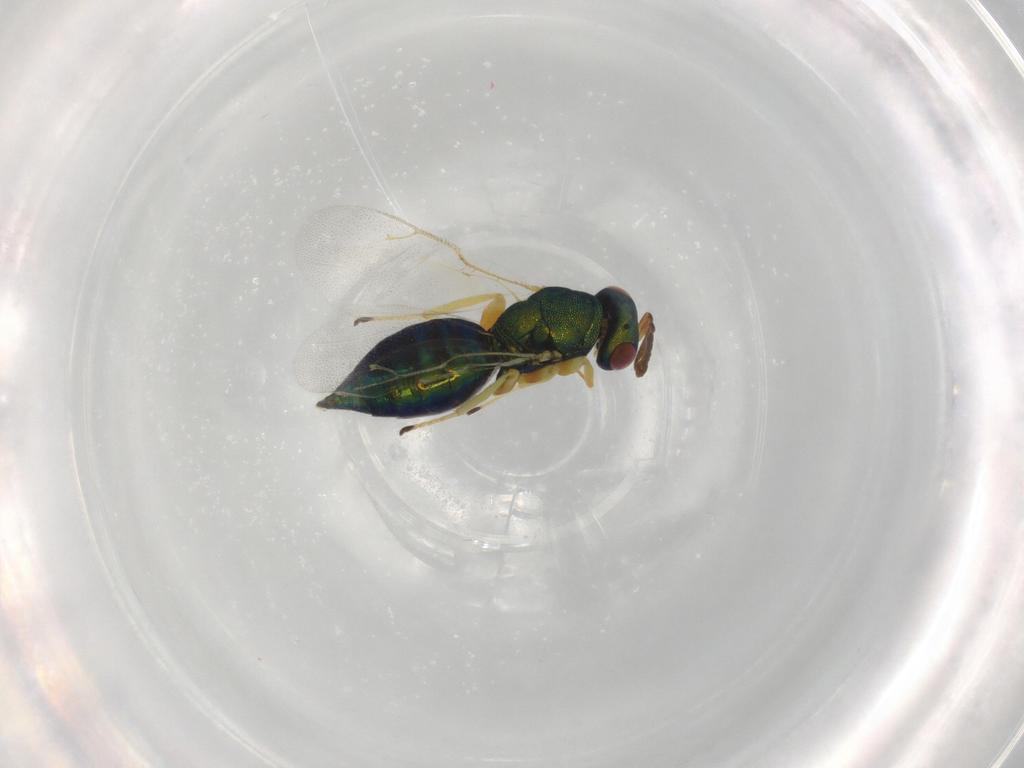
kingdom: Animalia
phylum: Arthropoda
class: Insecta
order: Hymenoptera
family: Pteromalidae
